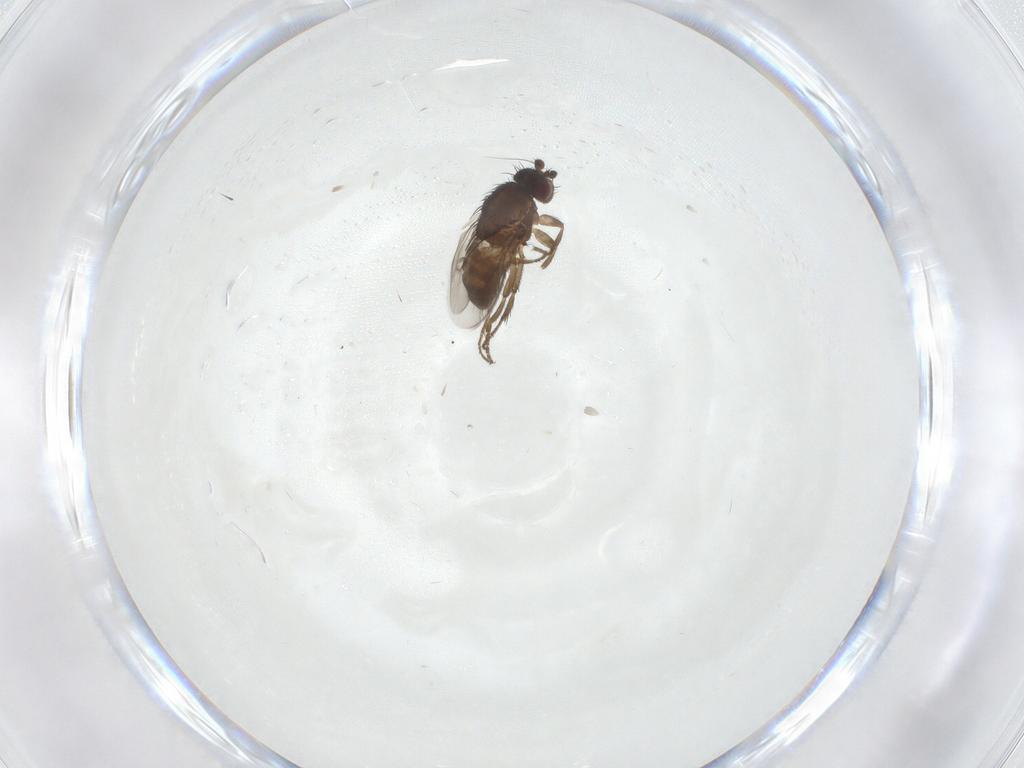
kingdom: Animalia
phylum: Arthropoda
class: Insecta
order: Diptera
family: Sphaeroceridae
